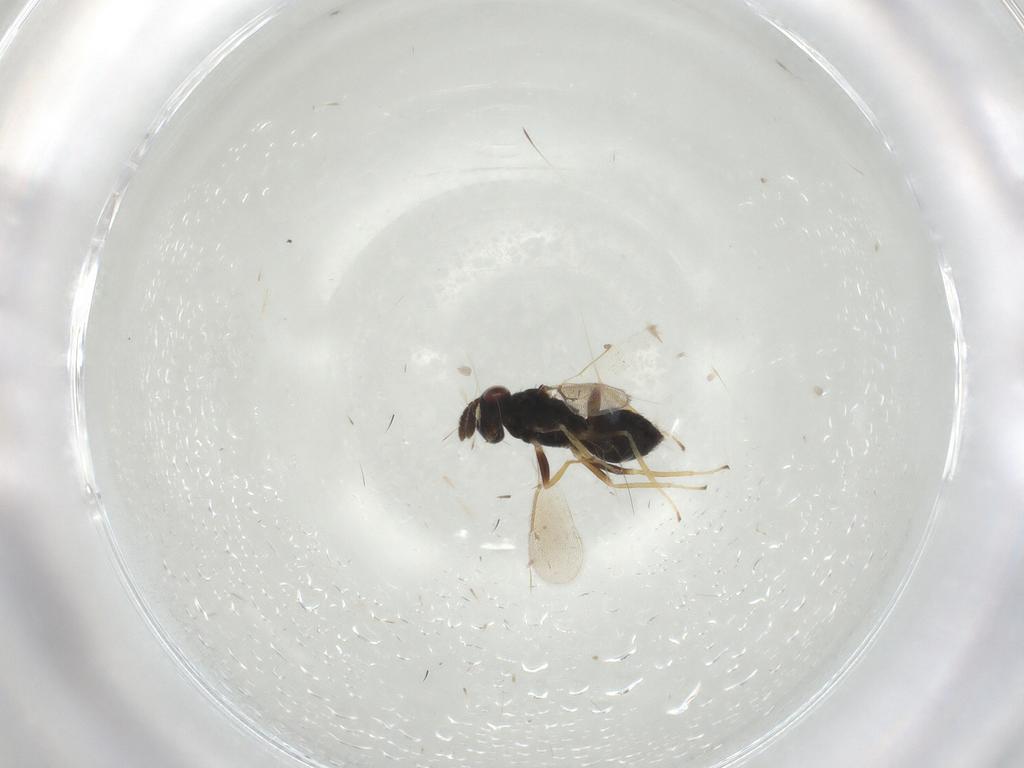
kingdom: Animalia
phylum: Arthropoda
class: Insecta
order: Hymenoptera
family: Eulophidae
